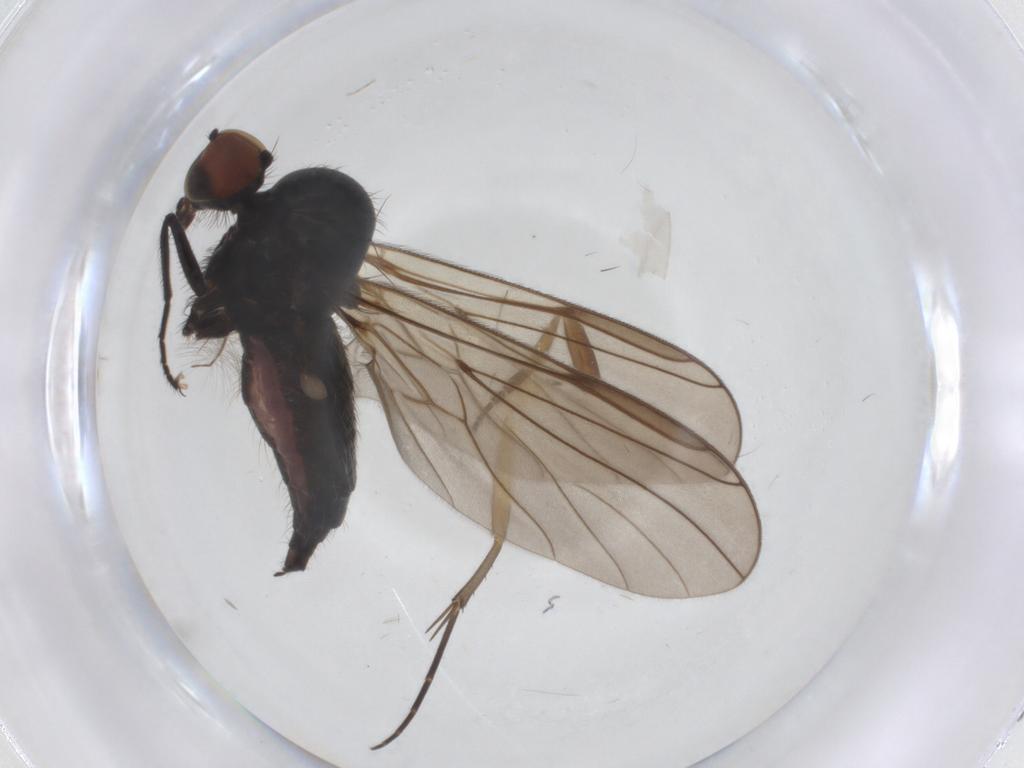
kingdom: Animalia
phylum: Arthropoda
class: Insecta
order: Diptera
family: Hybotidae
